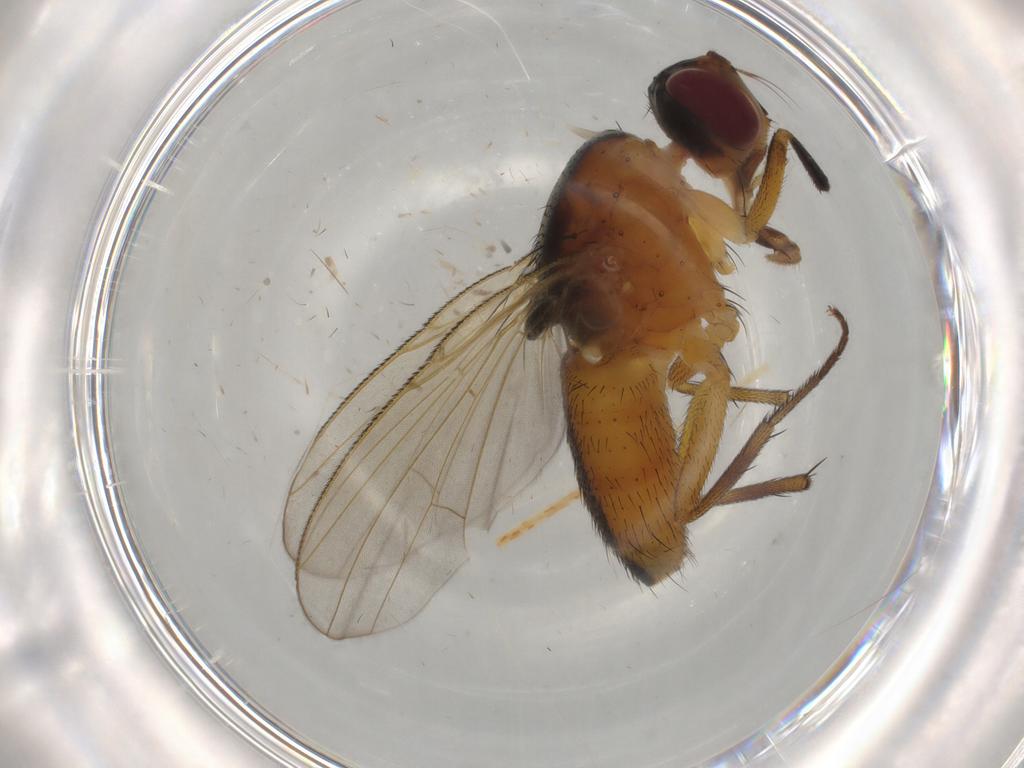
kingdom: Animalia
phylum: Arthropoda
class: Insecta
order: Diptera
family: Muscidae
